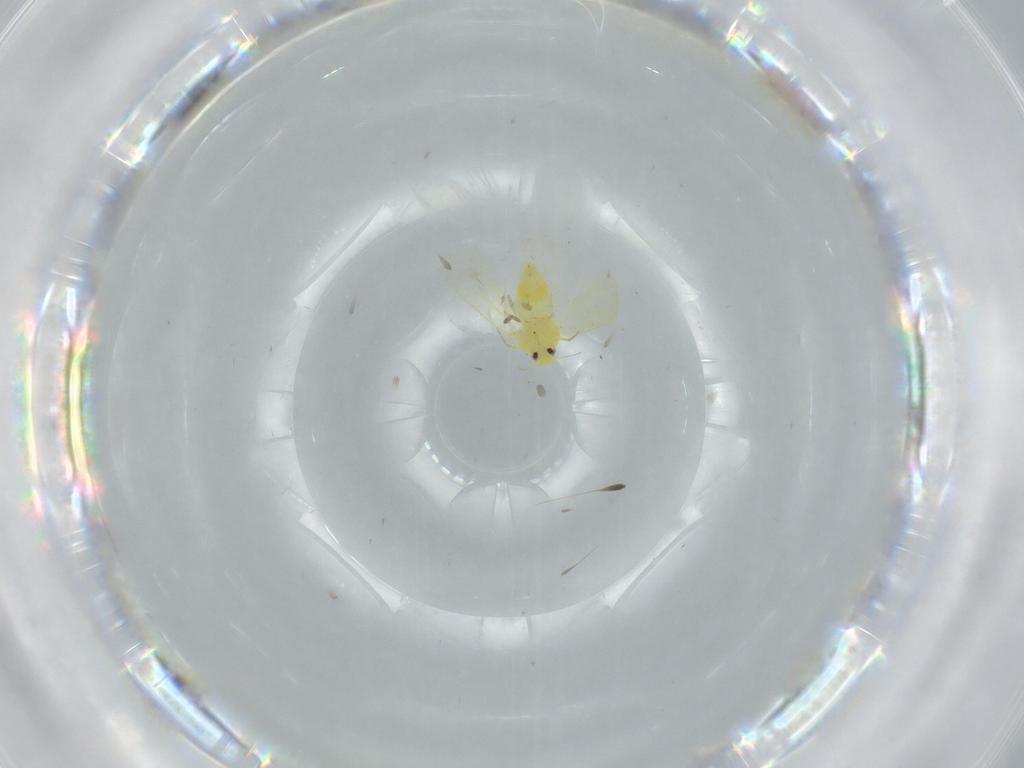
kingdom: Animalia
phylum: Arthropoda
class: Insecta
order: Hemiptera
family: Aleyrodidae
